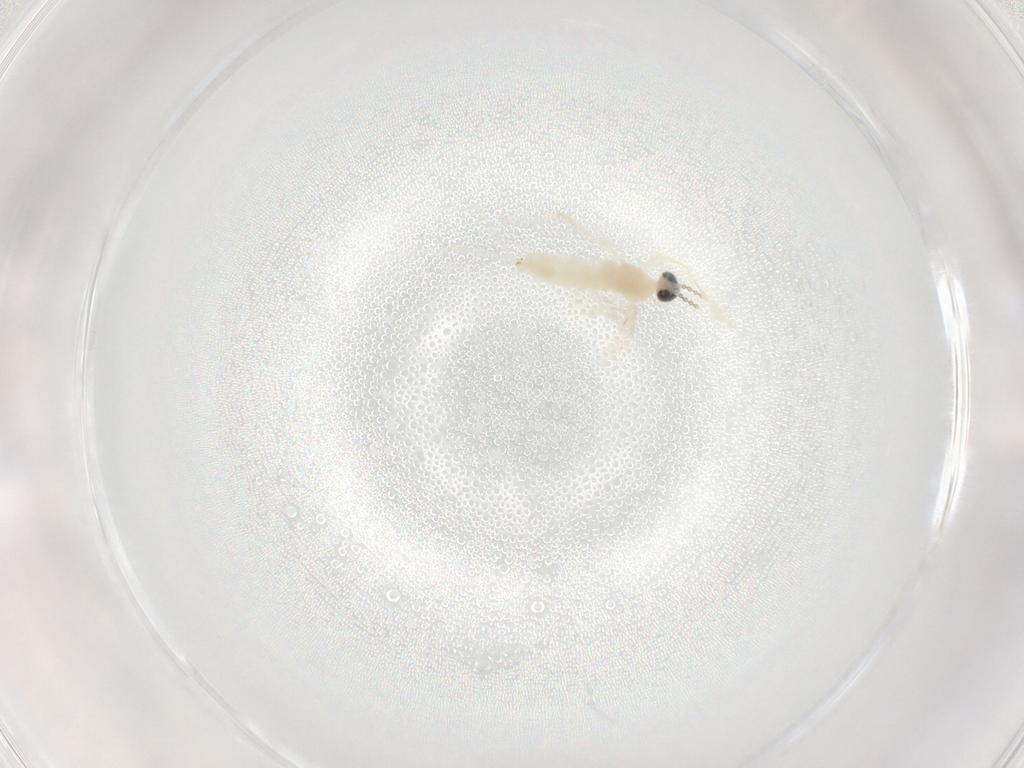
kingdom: Animalia
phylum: Arthropoda
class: Insecta
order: Diptera
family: Cecidomyiidae
